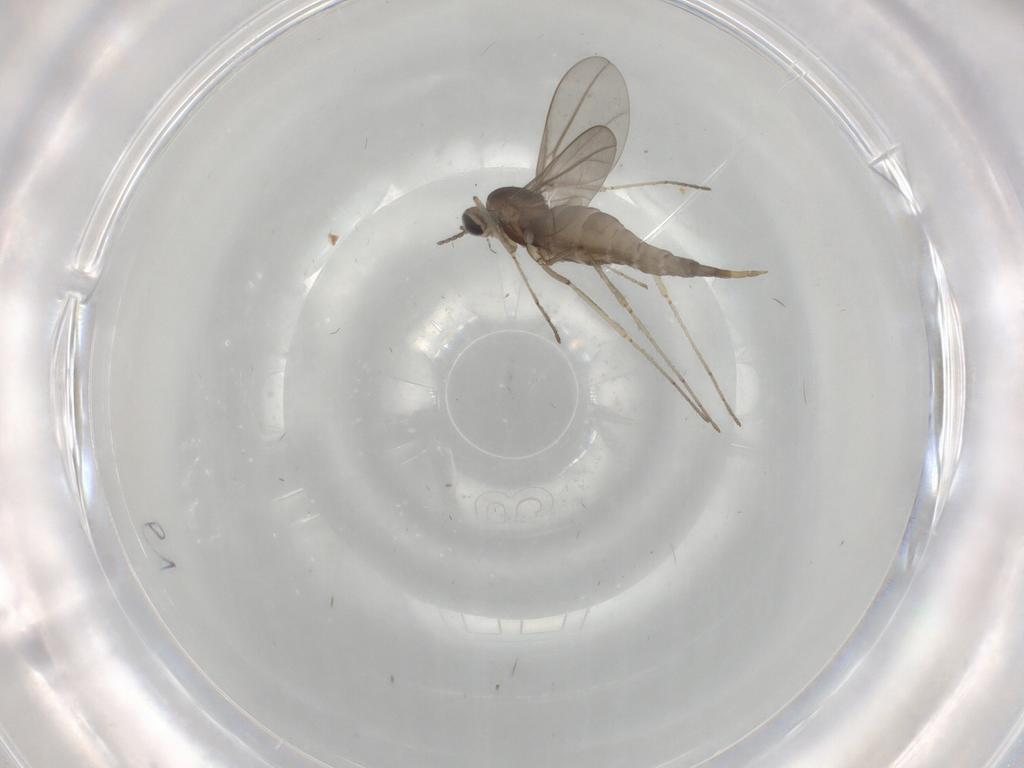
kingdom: Animalia
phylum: Arthropoda
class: Insecta
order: Diptera
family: Cecidomyiidae
